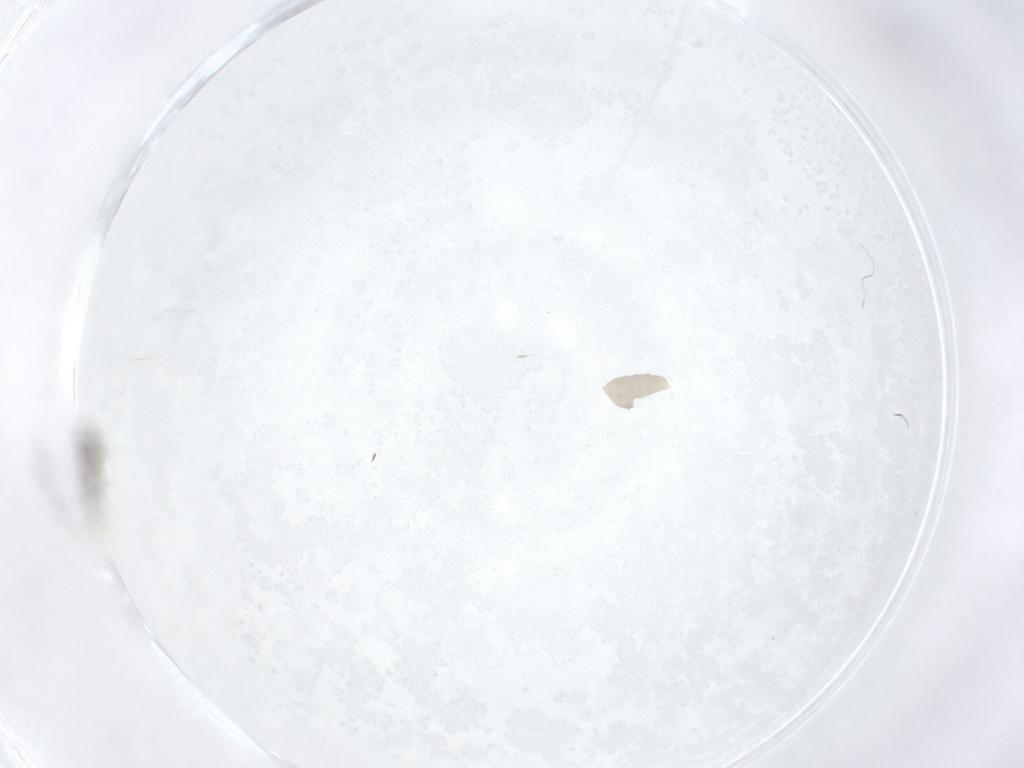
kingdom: Animalia
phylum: Arthropoda
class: Insecta
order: Diptera
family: Cecidomyiidae
